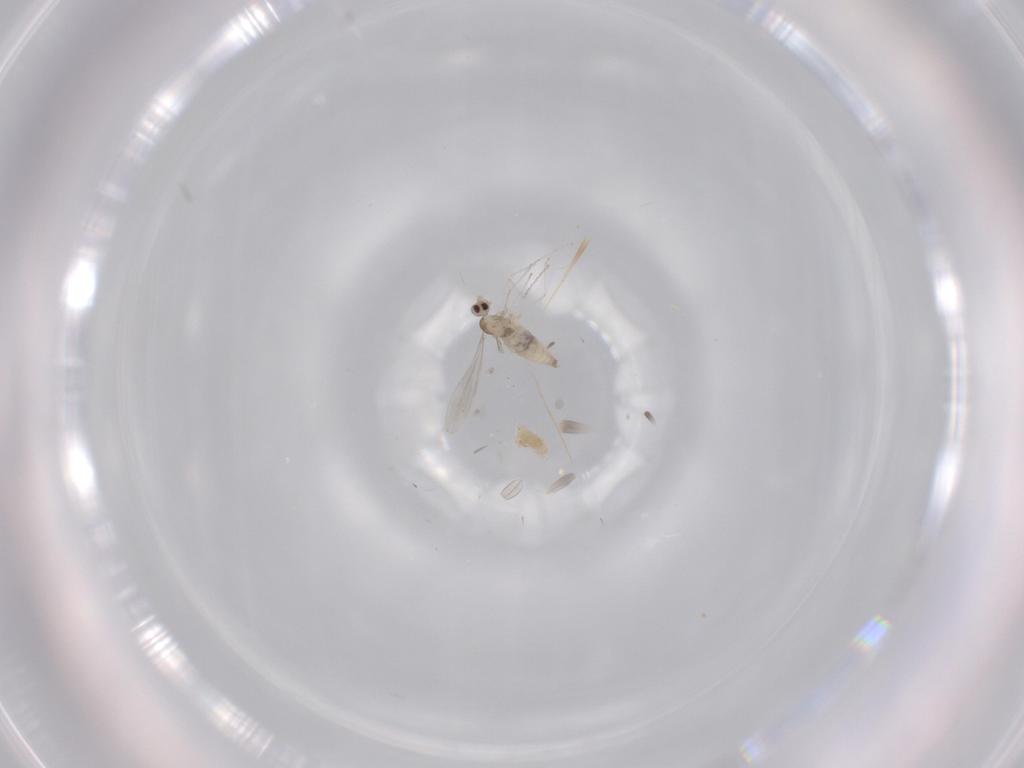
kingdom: Animalia
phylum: Arthropoda
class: Insecta
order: Diptera
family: Cecidomyiidae
